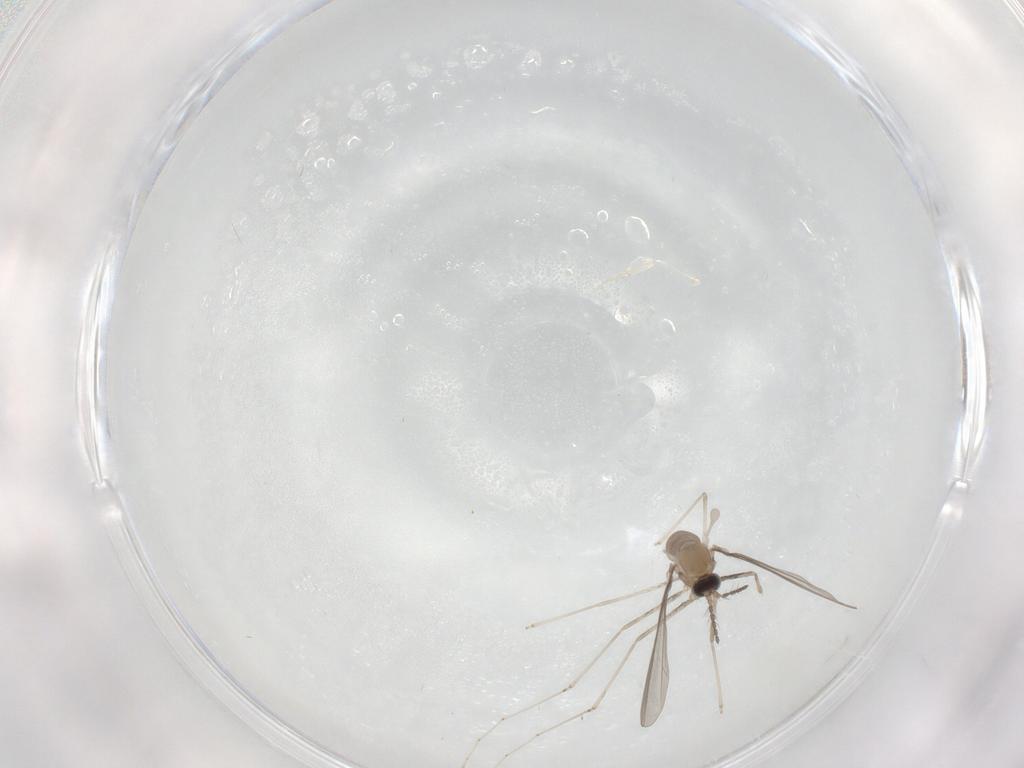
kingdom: Animalia
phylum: Arthropoda
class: Insecta
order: Diptera
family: Cecidomyiidae
